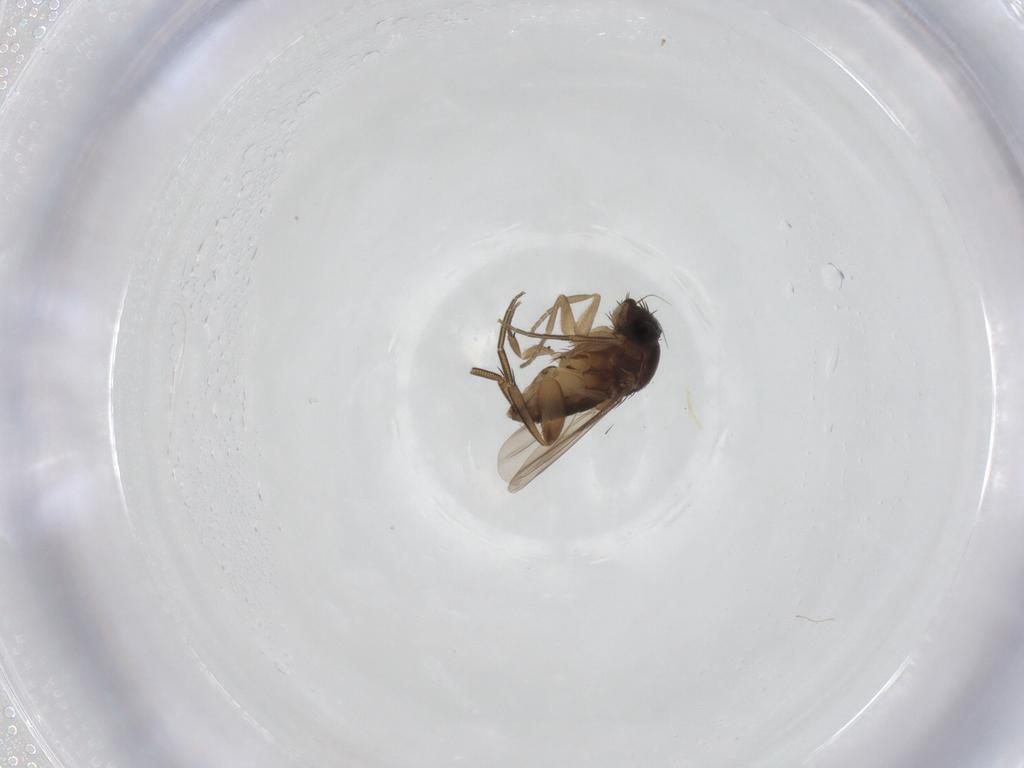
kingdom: Animalia
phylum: Arthropoda
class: Insecta
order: Diptera
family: Phoridae
